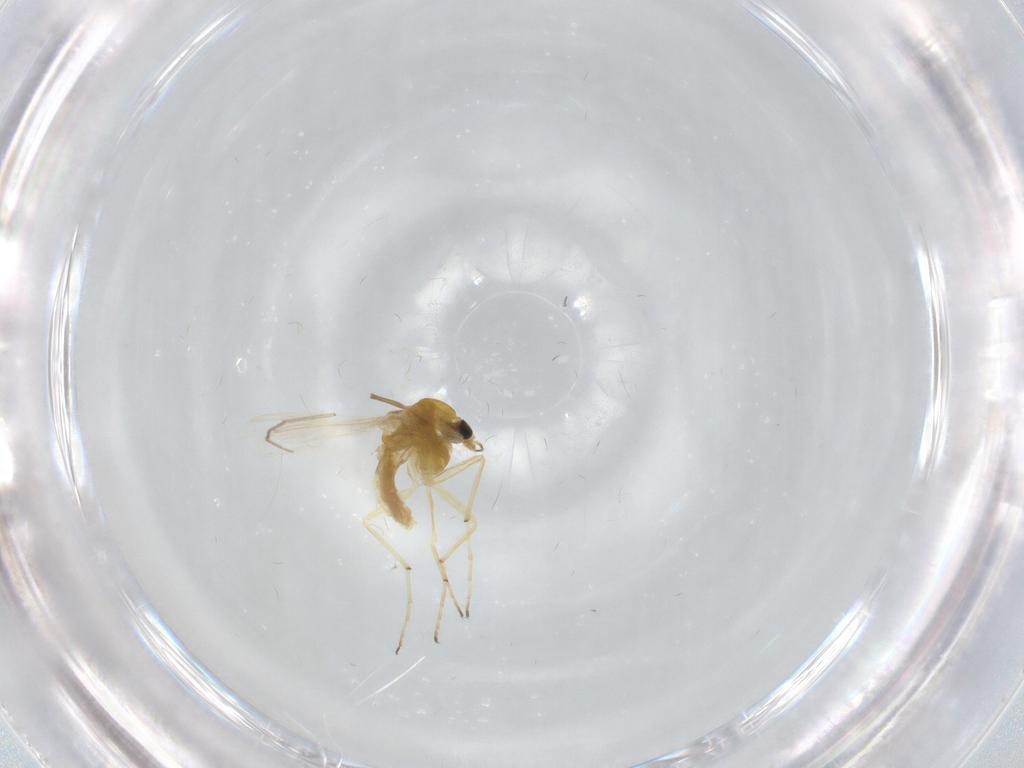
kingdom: Animalia
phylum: Arthropoda
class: Insecta
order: Diptera
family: Chironomidae
